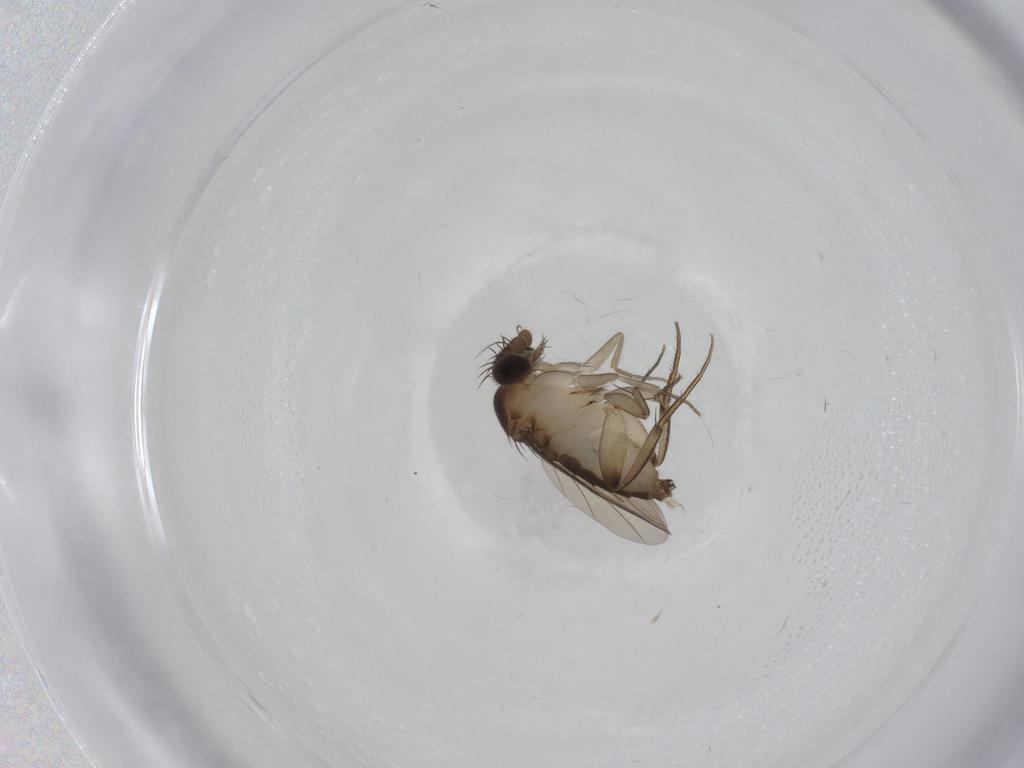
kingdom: Animalia
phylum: Arthropoda
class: Insecta
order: Diptera
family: Phoridae
